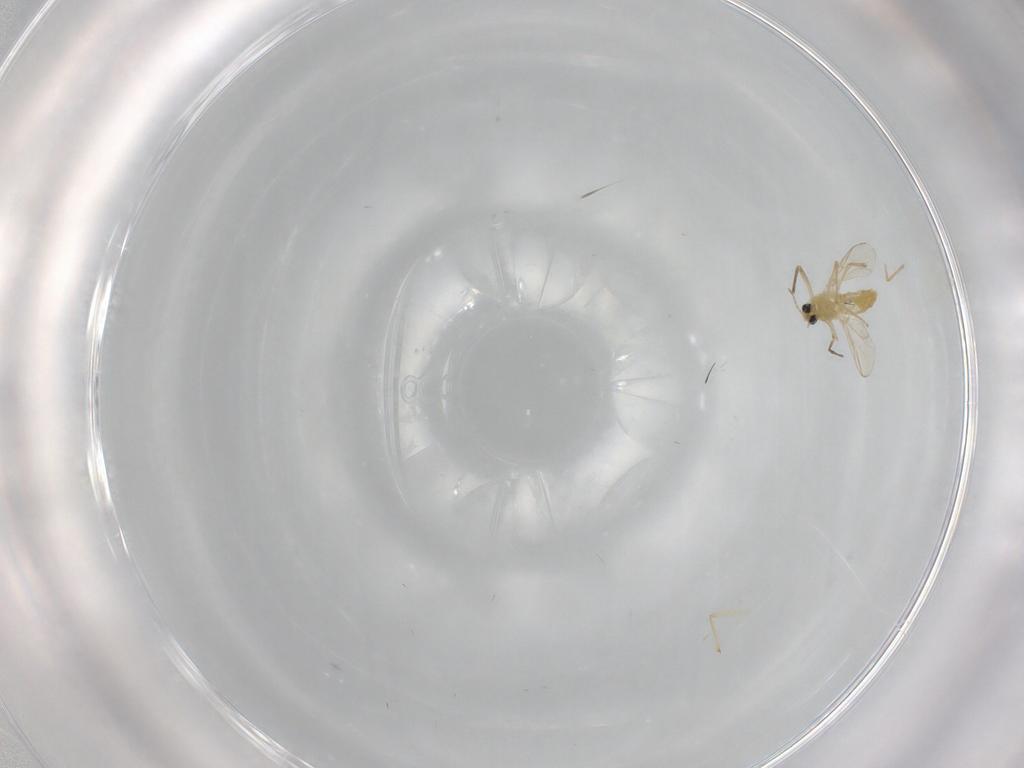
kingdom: Animalia
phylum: Arthropoda
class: Insecta
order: Diptera
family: Chironomidae
